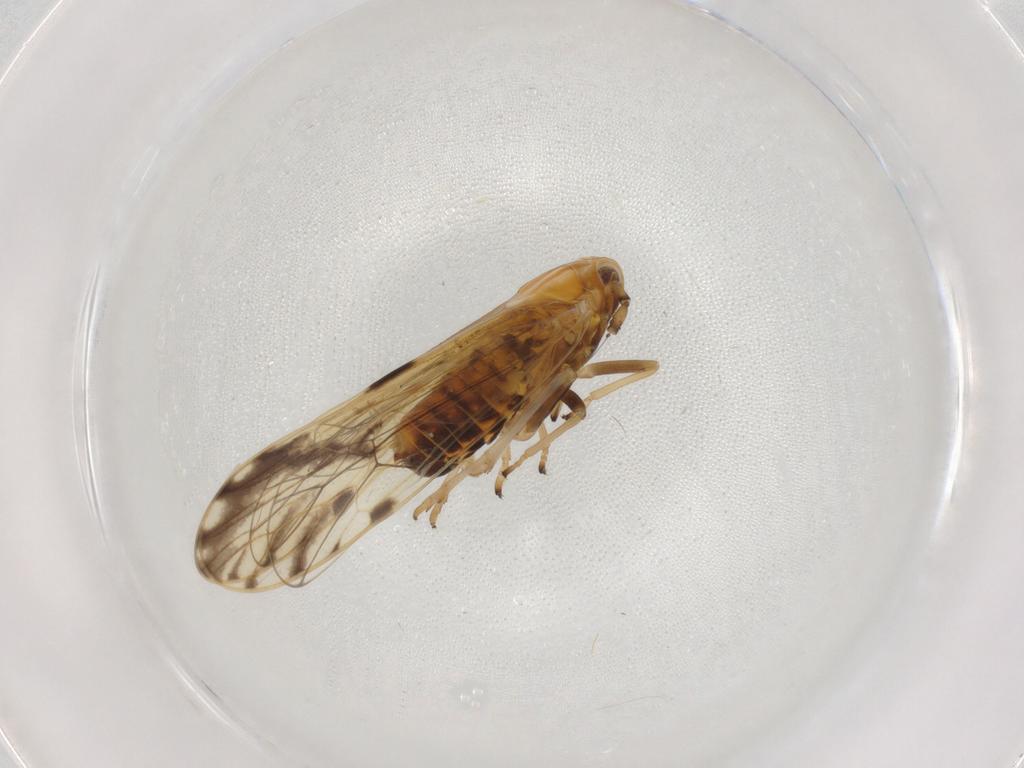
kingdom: Animalia
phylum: Arthropoda
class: Insecta
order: Hemiptera
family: Delphacidae
